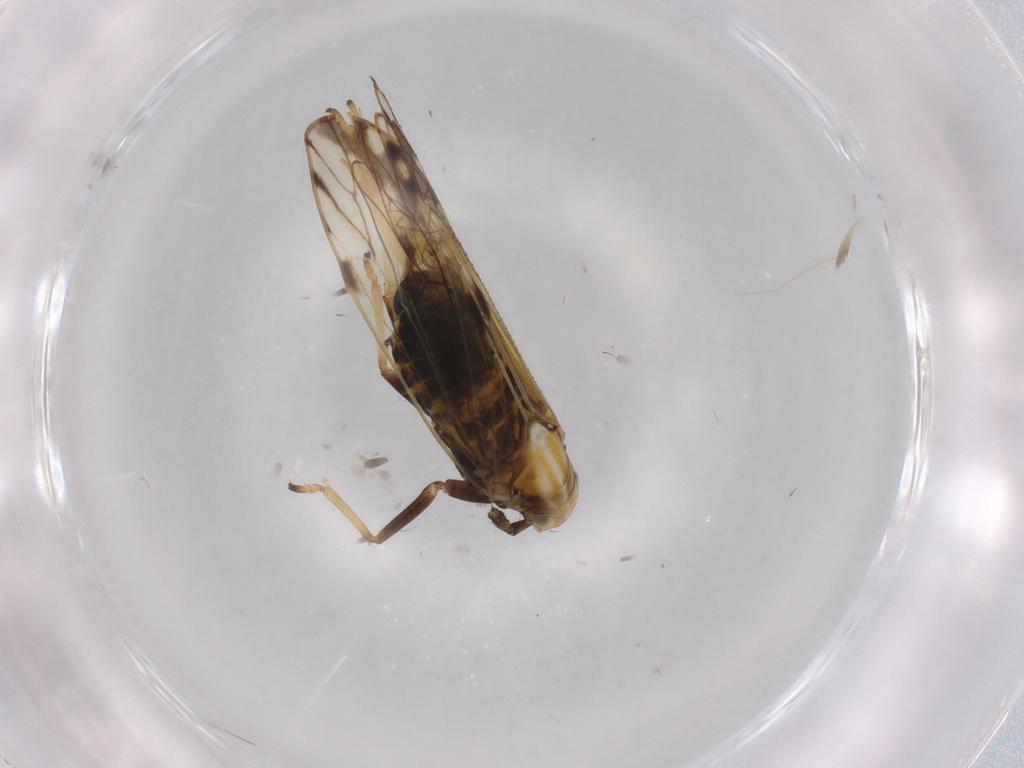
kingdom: Animalia
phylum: Arthropoda
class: Insecta
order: Hemiptera
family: Delphacidae
